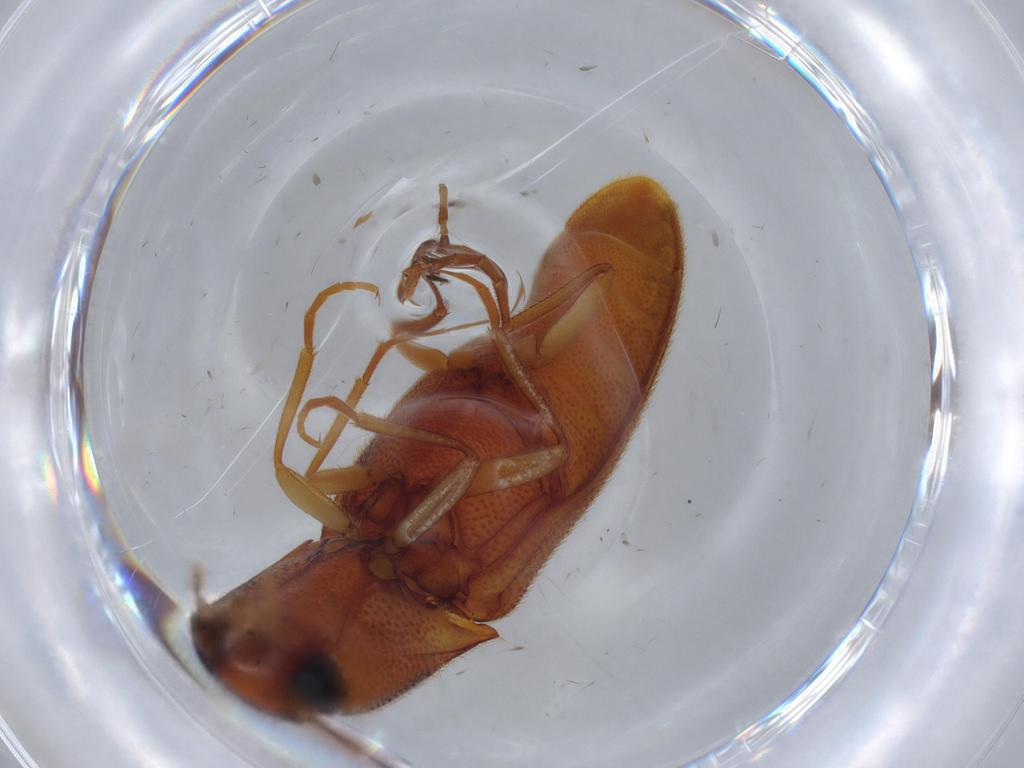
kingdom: Animalia
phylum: Arthropoda
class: Insecta
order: Coleoptera
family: Elateridae
